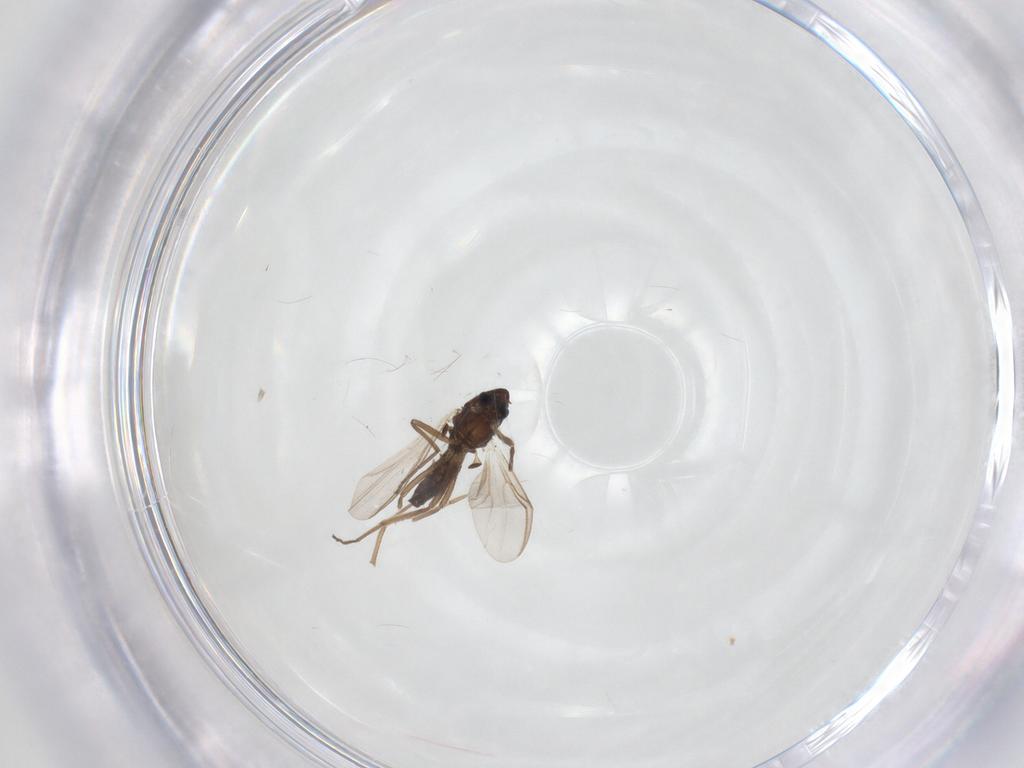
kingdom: Animalia
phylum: Arthropoda
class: Insecta
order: Diptera
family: Chironomidae
